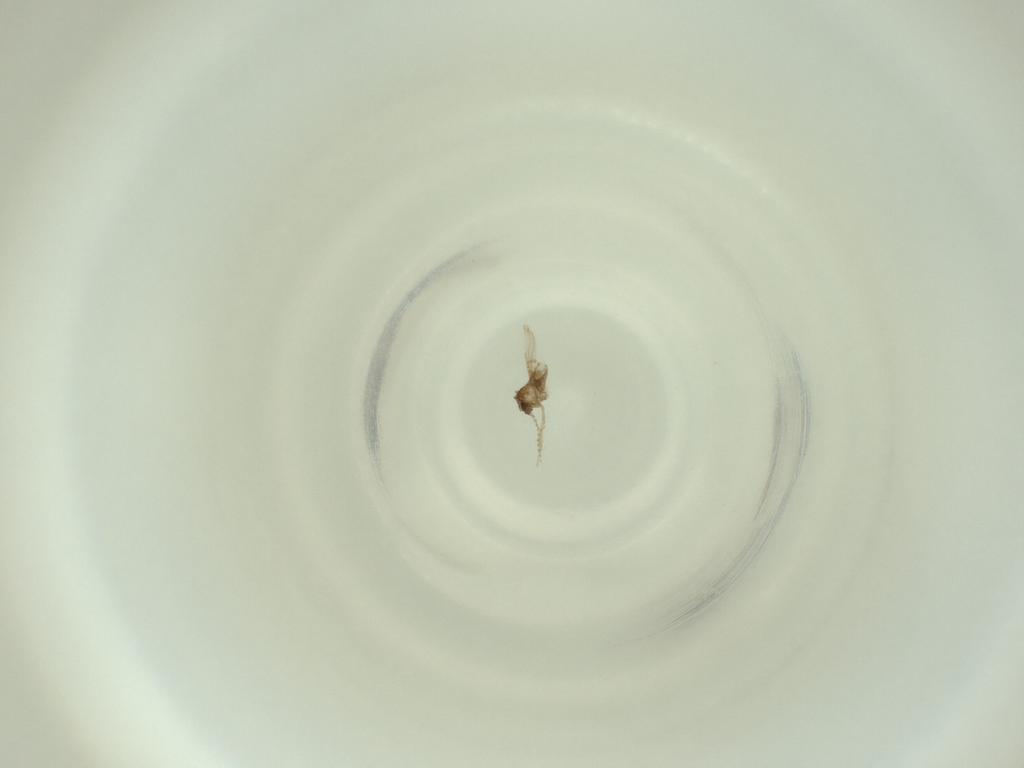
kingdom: Animalia
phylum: Arthropoda
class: Insecta
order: Diptera
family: Cecidomyiidae
